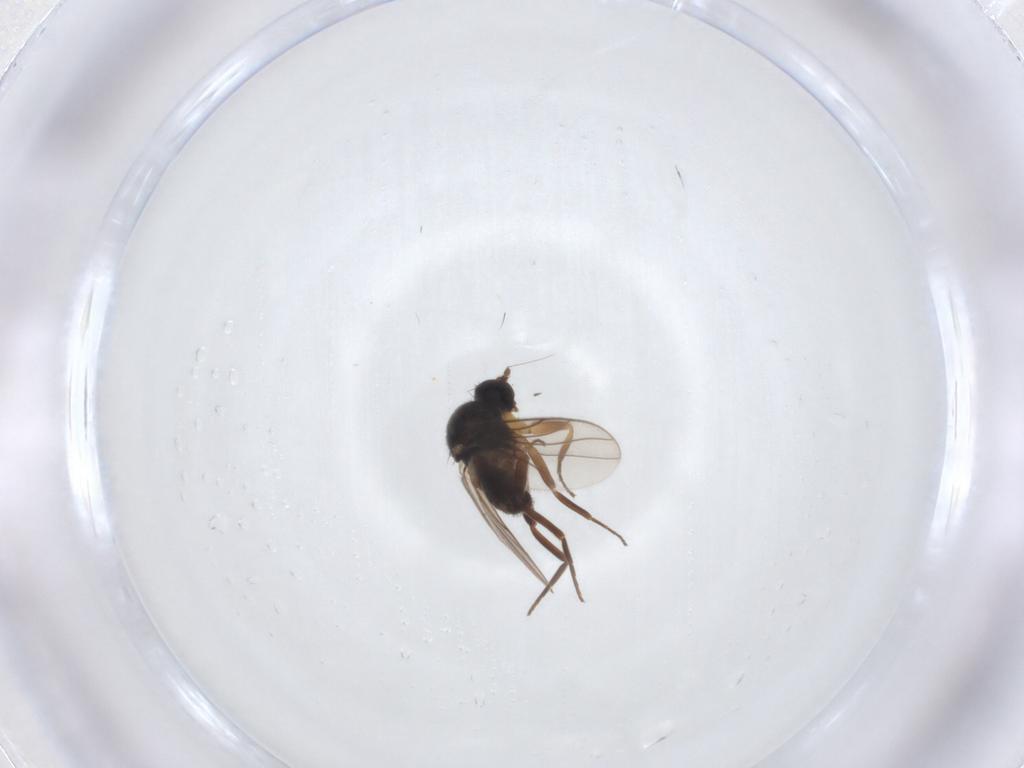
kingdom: Animalia
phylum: Arthropoda
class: Insecta
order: Diptera
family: Hybotidae
